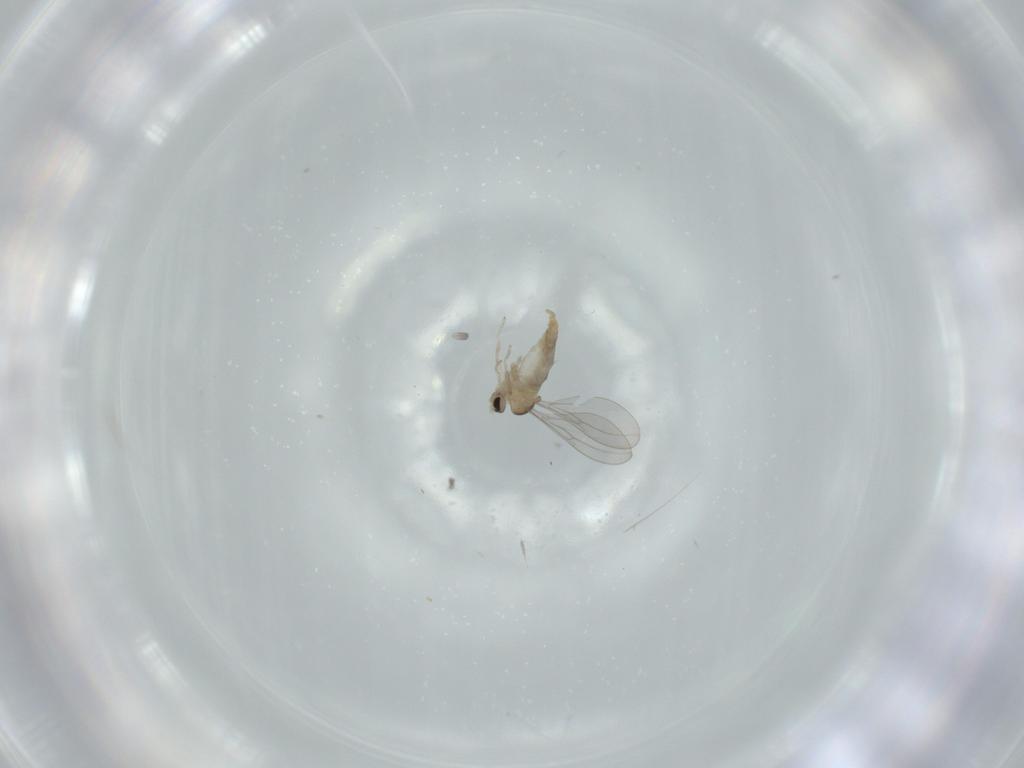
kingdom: Animalia
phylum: Arthropoda
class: Insecta
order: Diptera
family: Cecidomyiidae
